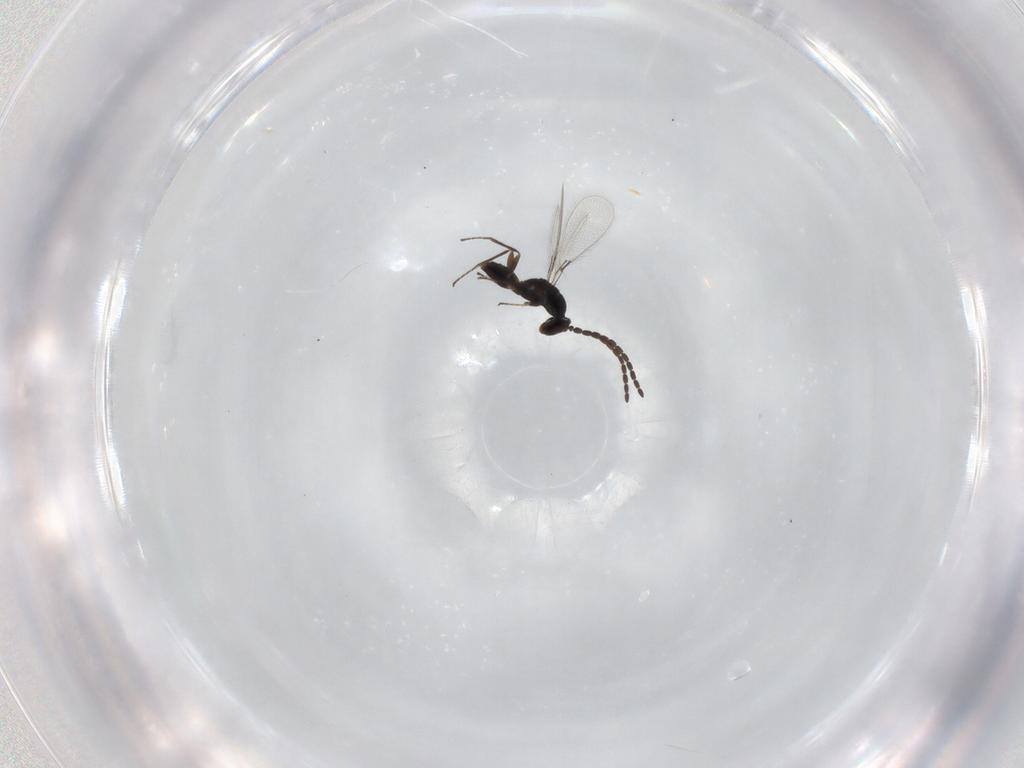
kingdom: Animalia
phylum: Arthropoda
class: Insecta
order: Hymenoptera
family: Mymaridae
